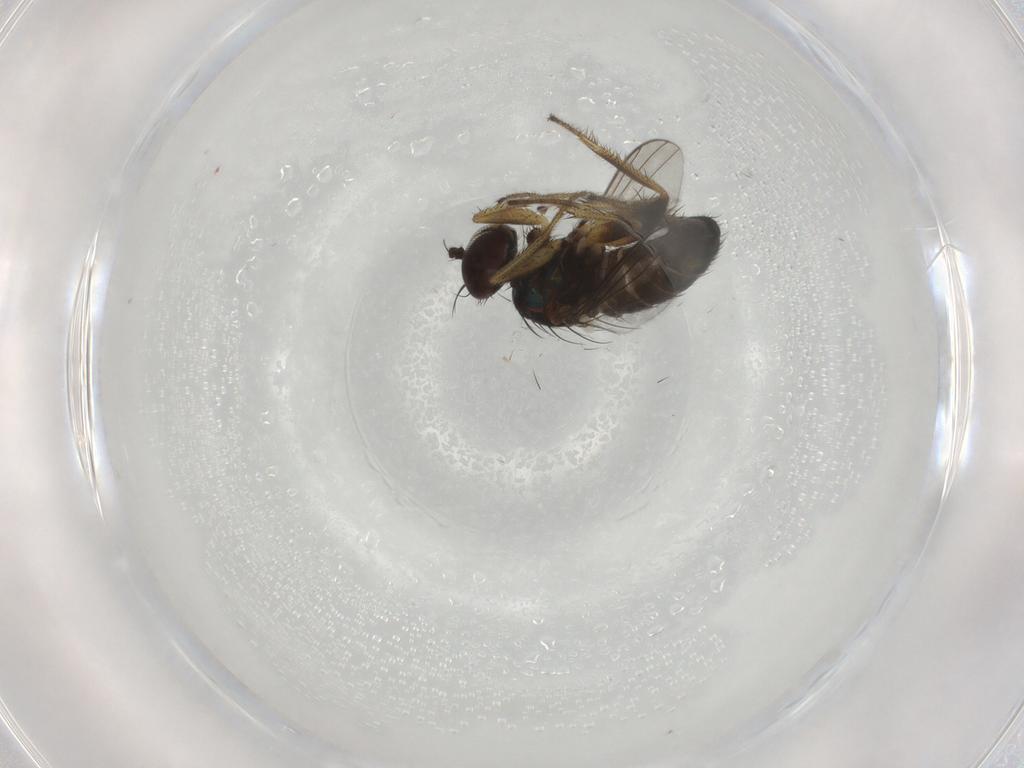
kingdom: Animalia
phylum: Arthropoda
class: Insecta
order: Diptera
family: Dolichopodidae
